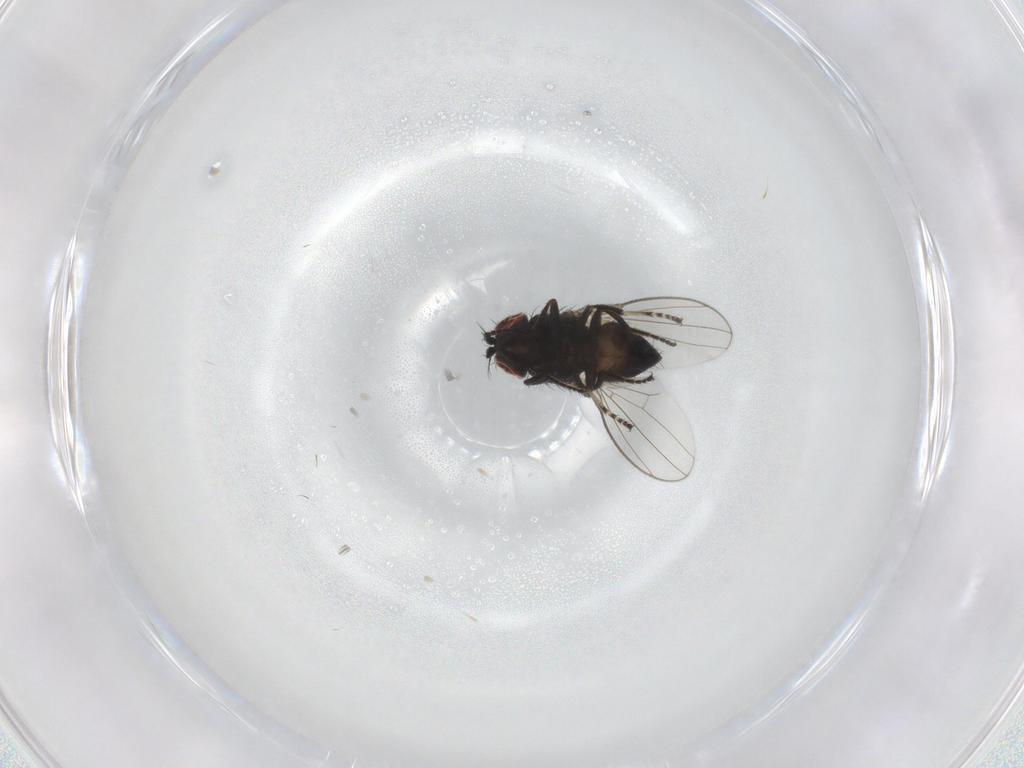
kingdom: Animalia
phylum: Arthropoda
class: Insecta
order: Diptera
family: Ephydridae
